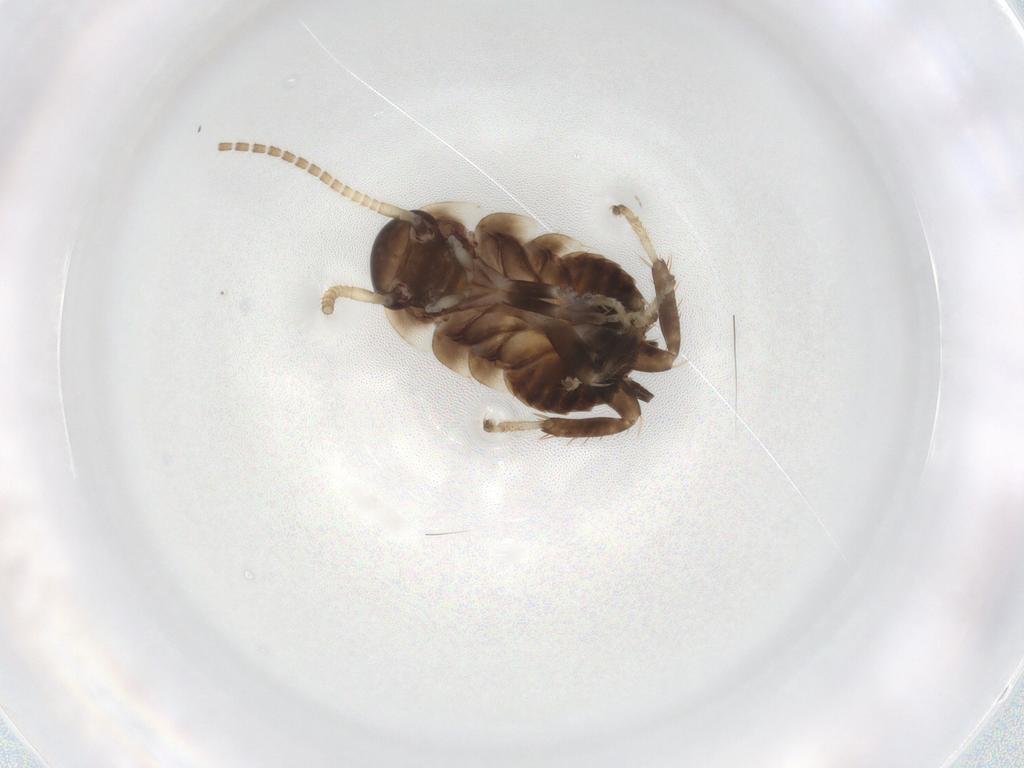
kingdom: Animalia
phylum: Arthropoda
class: Insecta
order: Blattodea
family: Blaberidae
